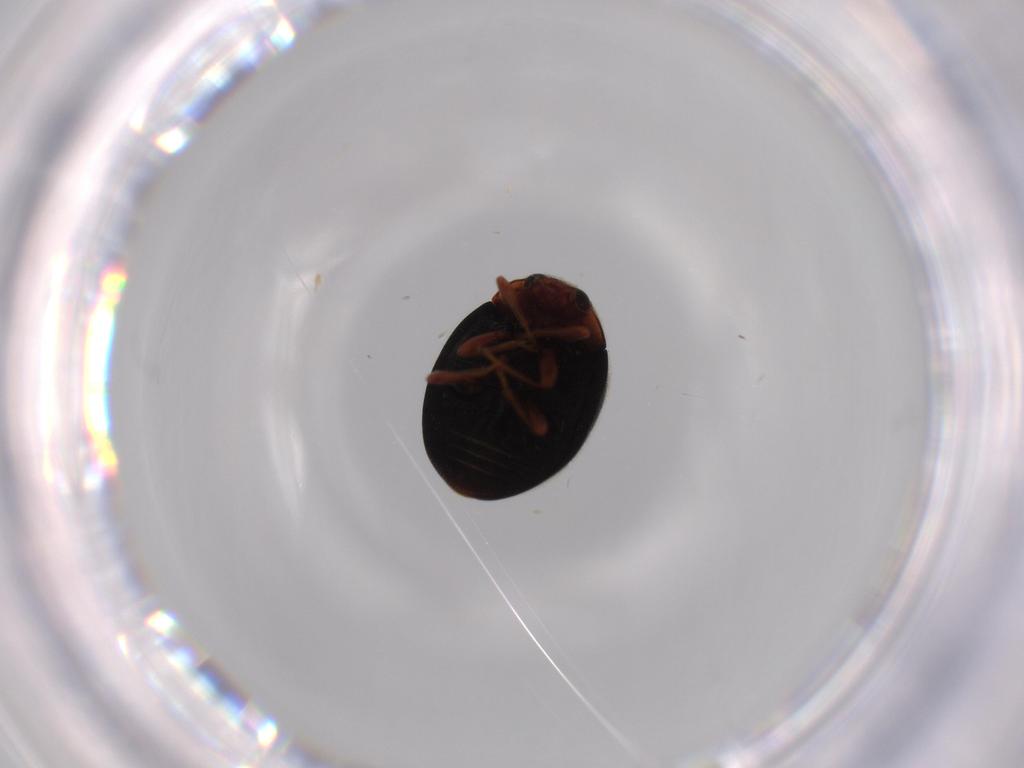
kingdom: Animalia
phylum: Arthropoda
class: Insecta
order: Coleoptera
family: Coccinellidae
